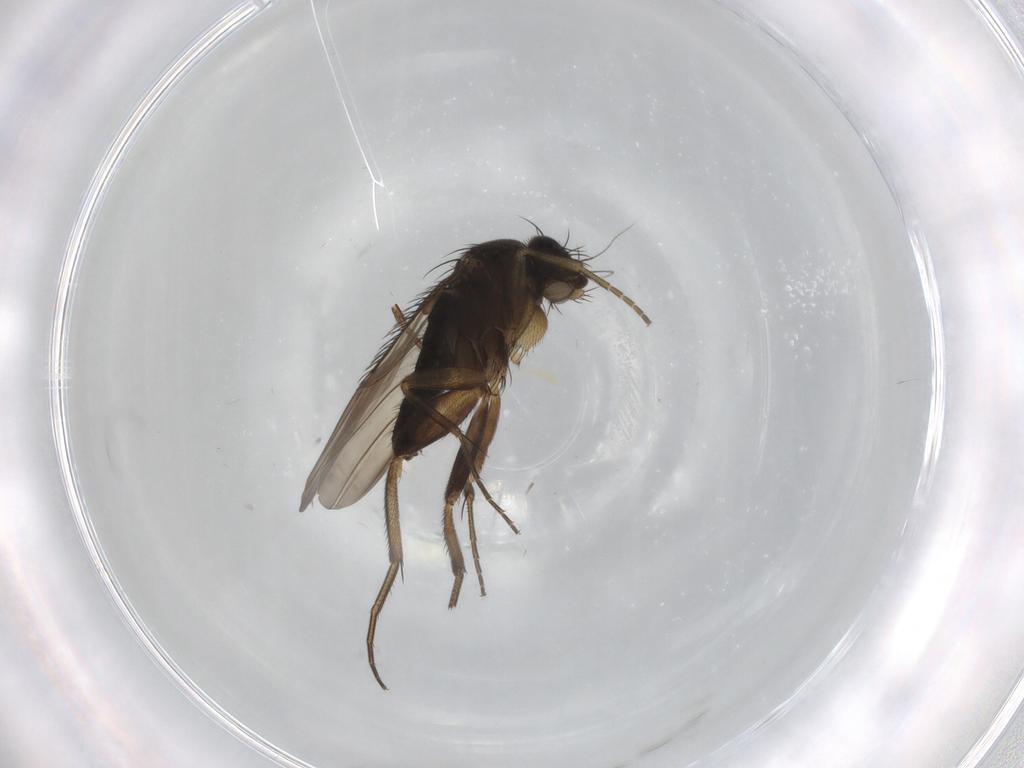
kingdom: Animalia
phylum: Arthropoda
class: Insecta
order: Diptera
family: Phoridae
